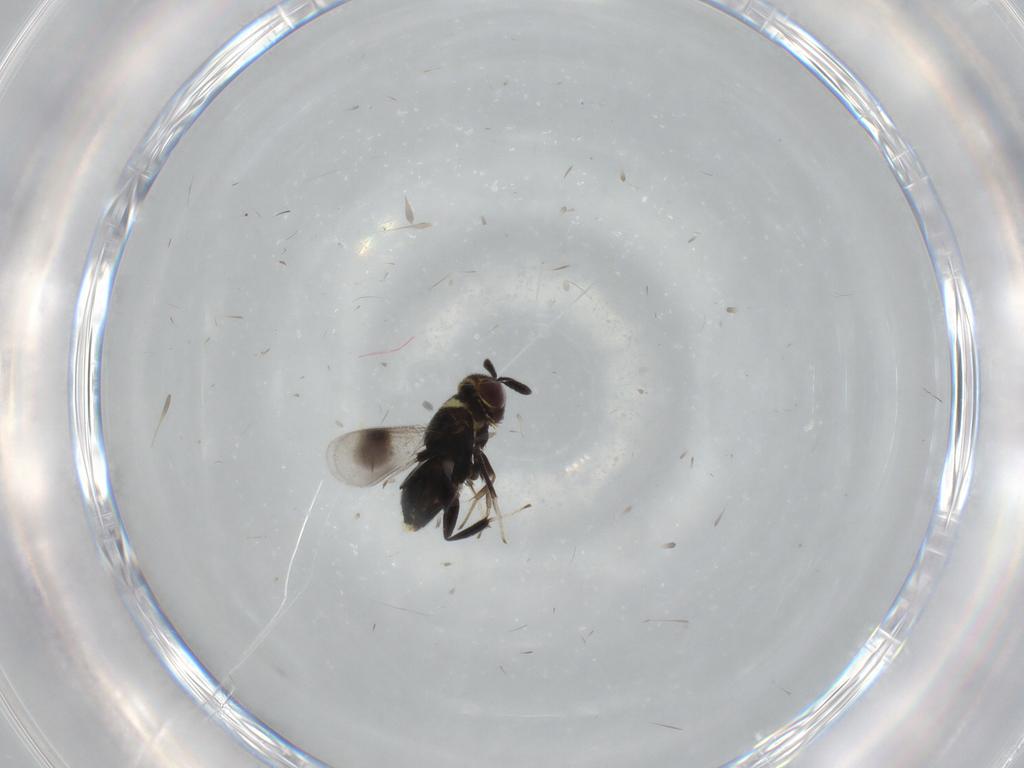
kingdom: Animalia
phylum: Arthropoda
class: Insecta
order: Hymenoptera
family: Aphelinidae
